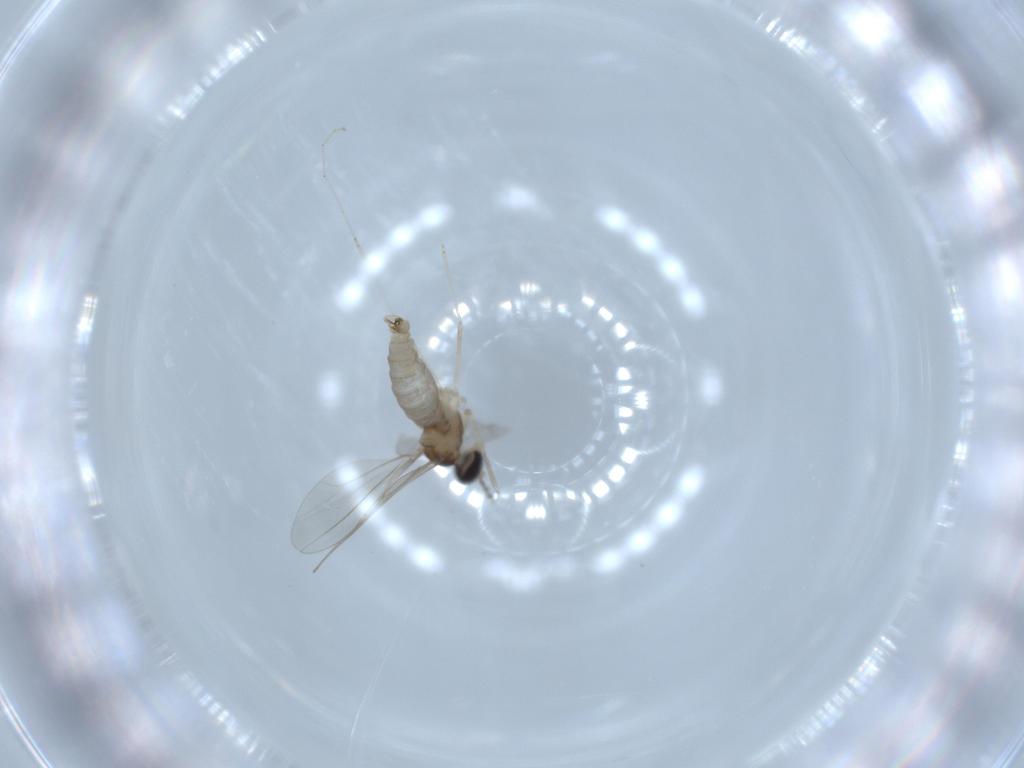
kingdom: Animalia
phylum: Arthropoda
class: Insecta
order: Diptera
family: Cecidomyiidae
